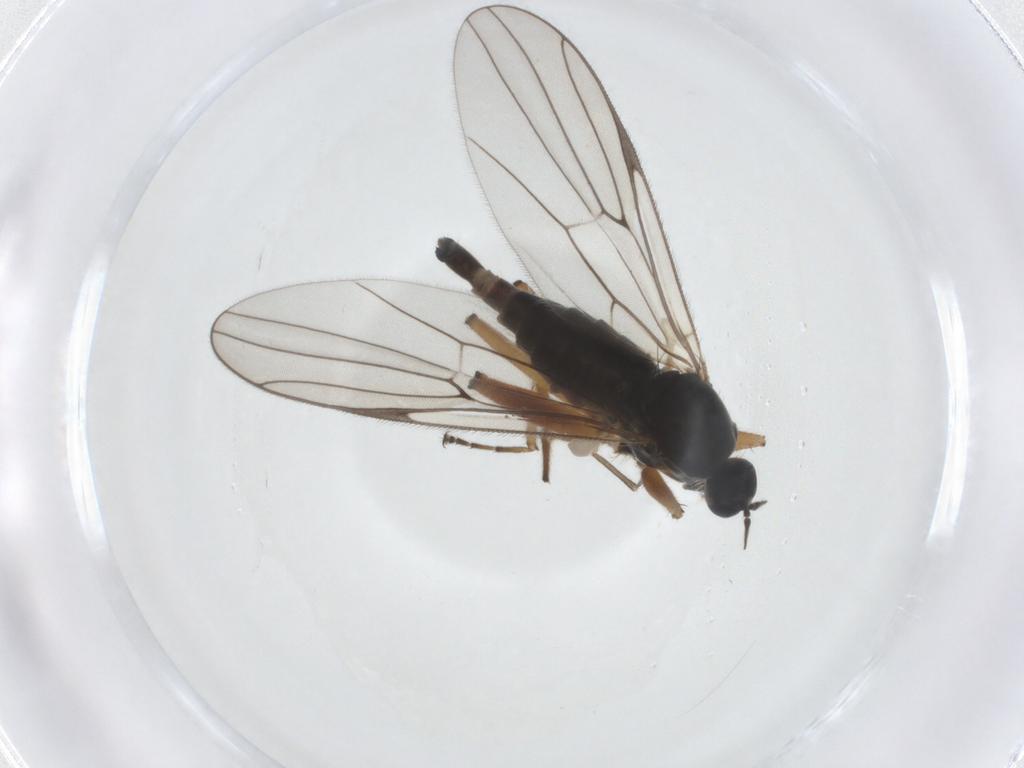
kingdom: Animalia
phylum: Arthropoda
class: Insecta
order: Diptera
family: Hybotidae
